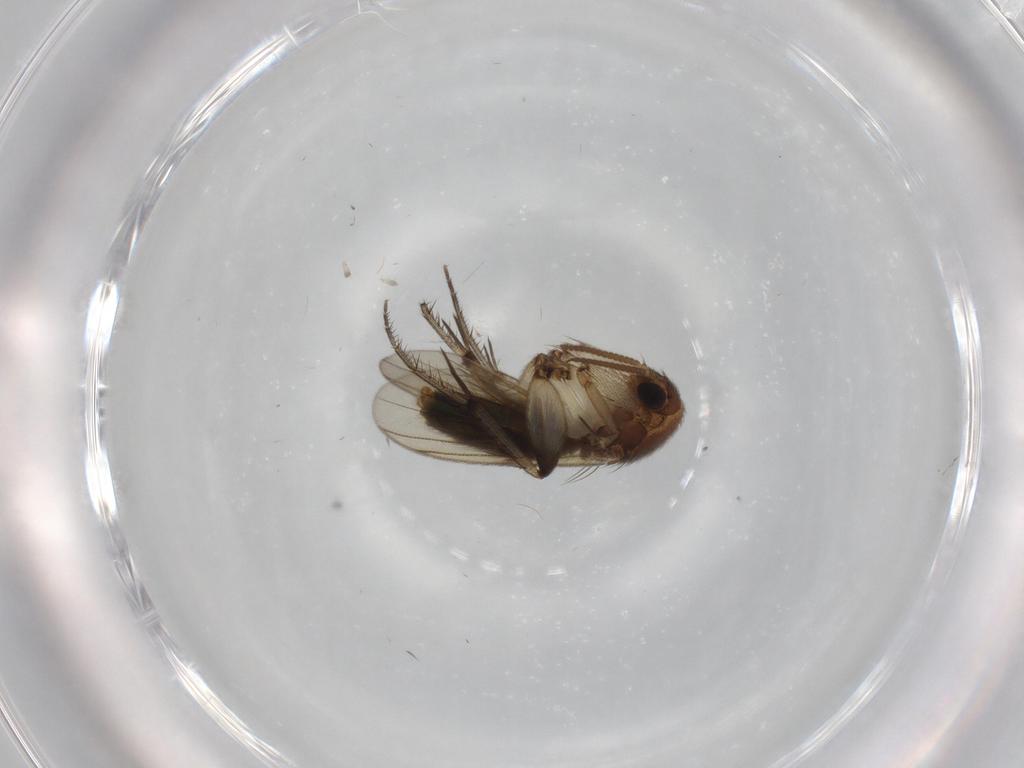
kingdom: Animalia
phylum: Arthropoda
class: Insecta
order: Diptera
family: Mycetophilidae
